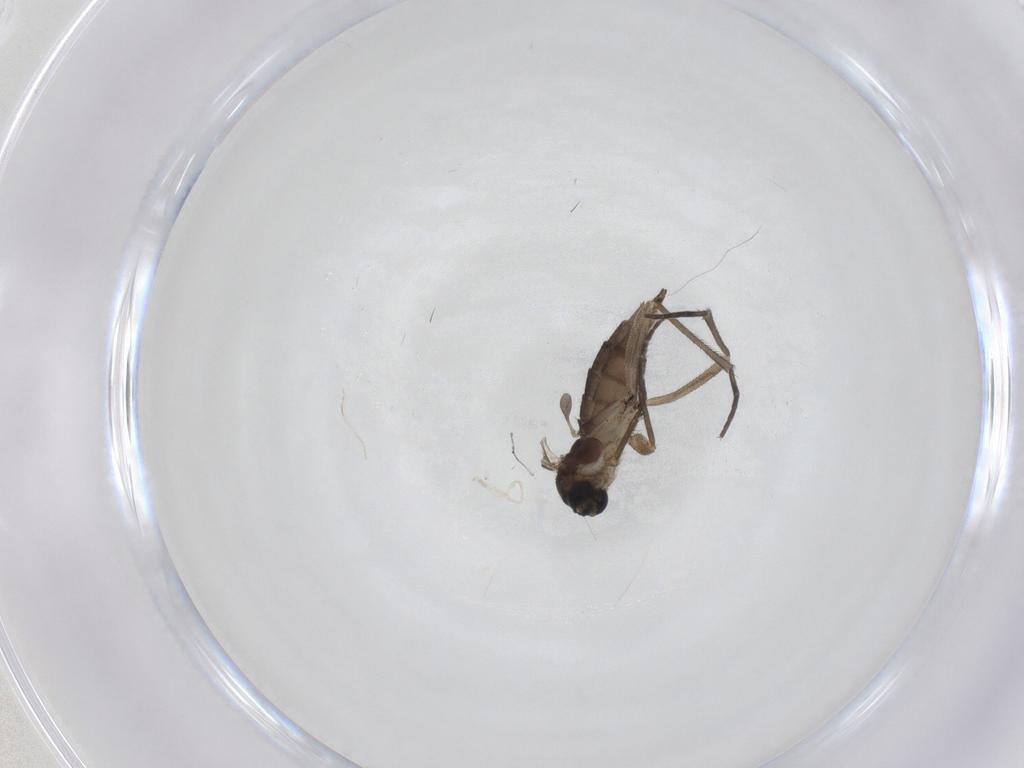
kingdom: Animalia
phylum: Arthropoda
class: Insecta
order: Diptera
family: Sciaridae
